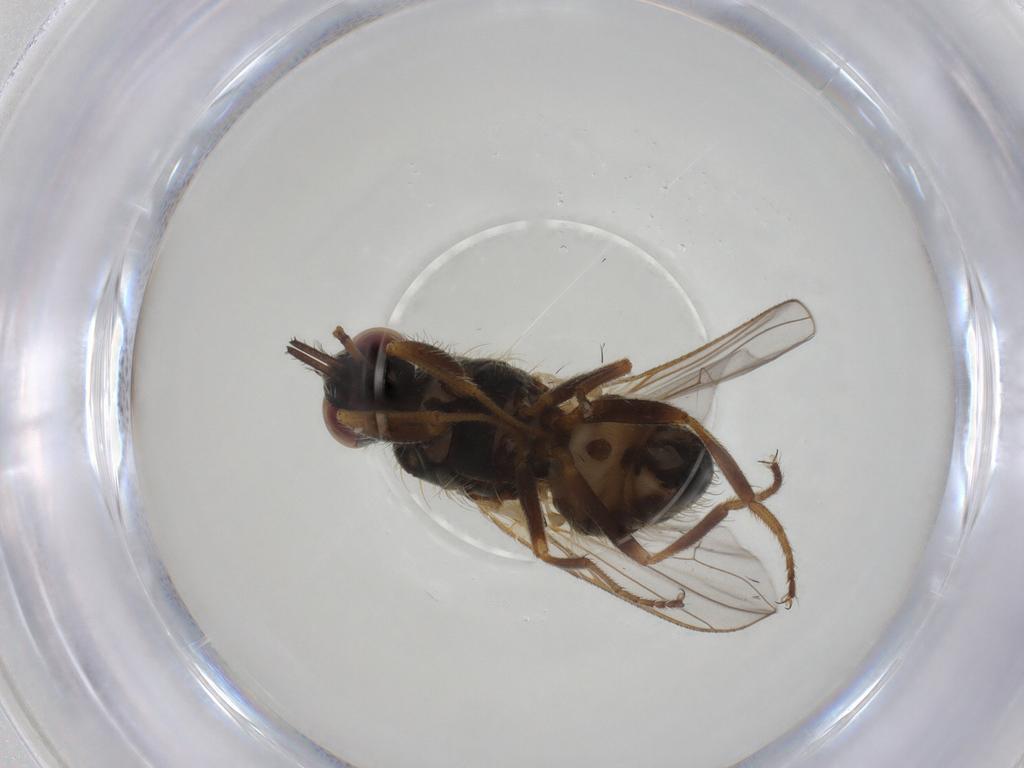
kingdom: Animalia
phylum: Arthropoda
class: Insecta
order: Diptera
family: Muscidae
